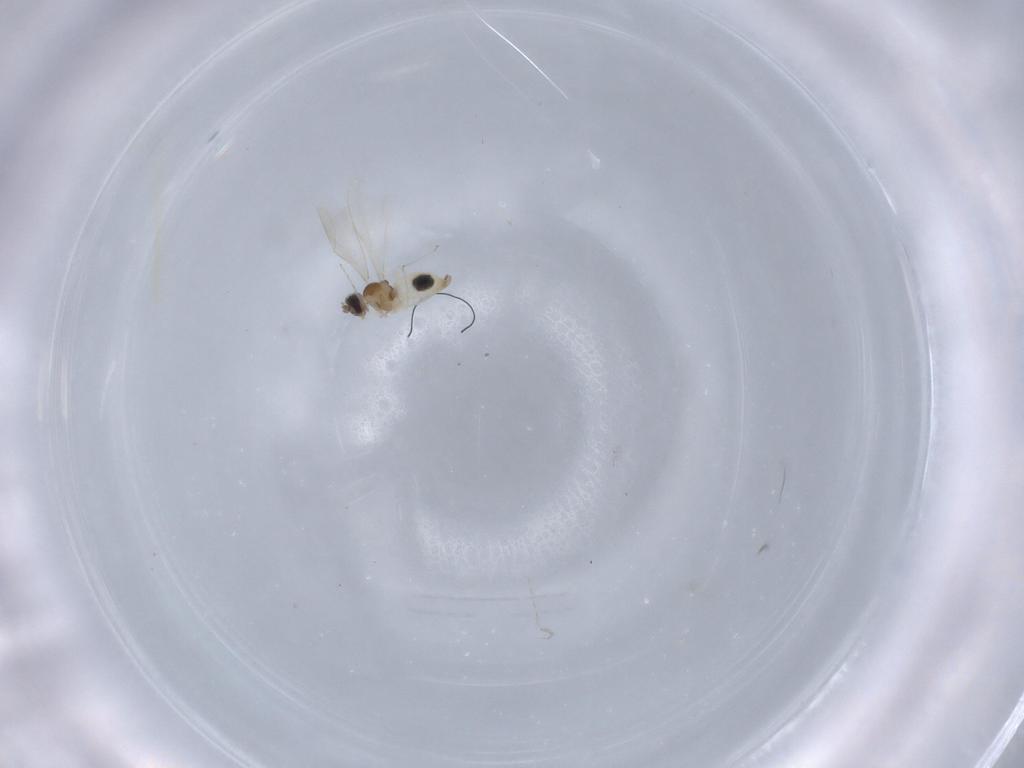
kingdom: Animalia
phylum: Arthropoda
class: Insecta
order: Diptera
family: Cecidomyiidae
